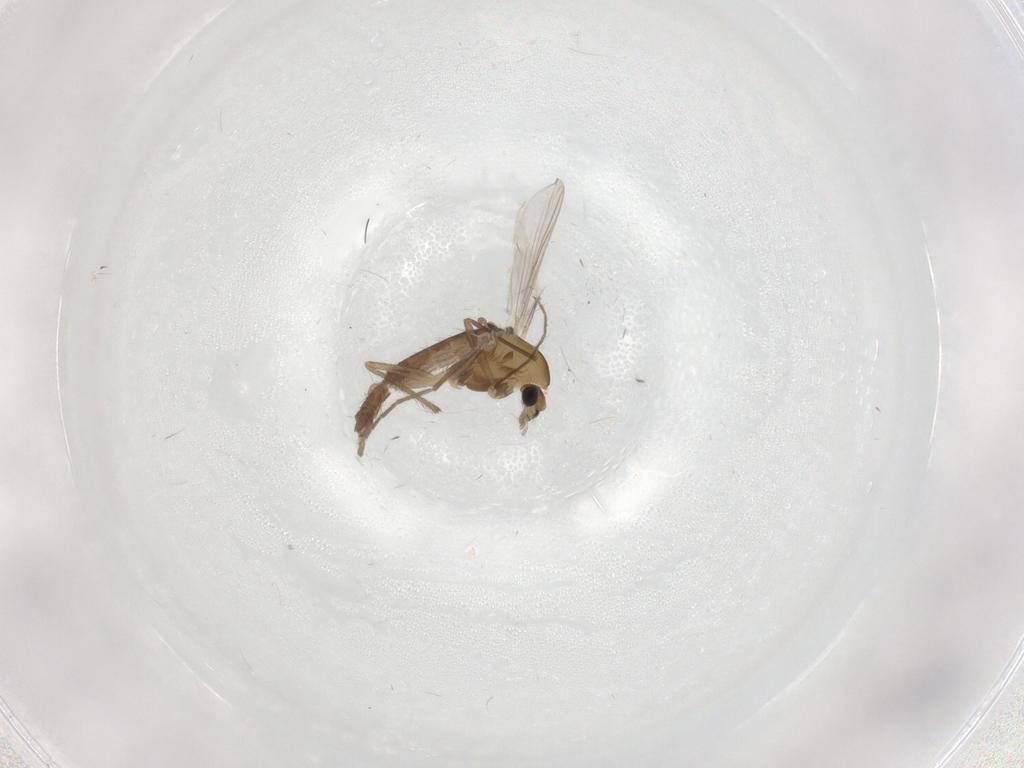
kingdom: Animalia
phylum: Arthropoda
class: Insecta
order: Diptera
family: Chironomidae
